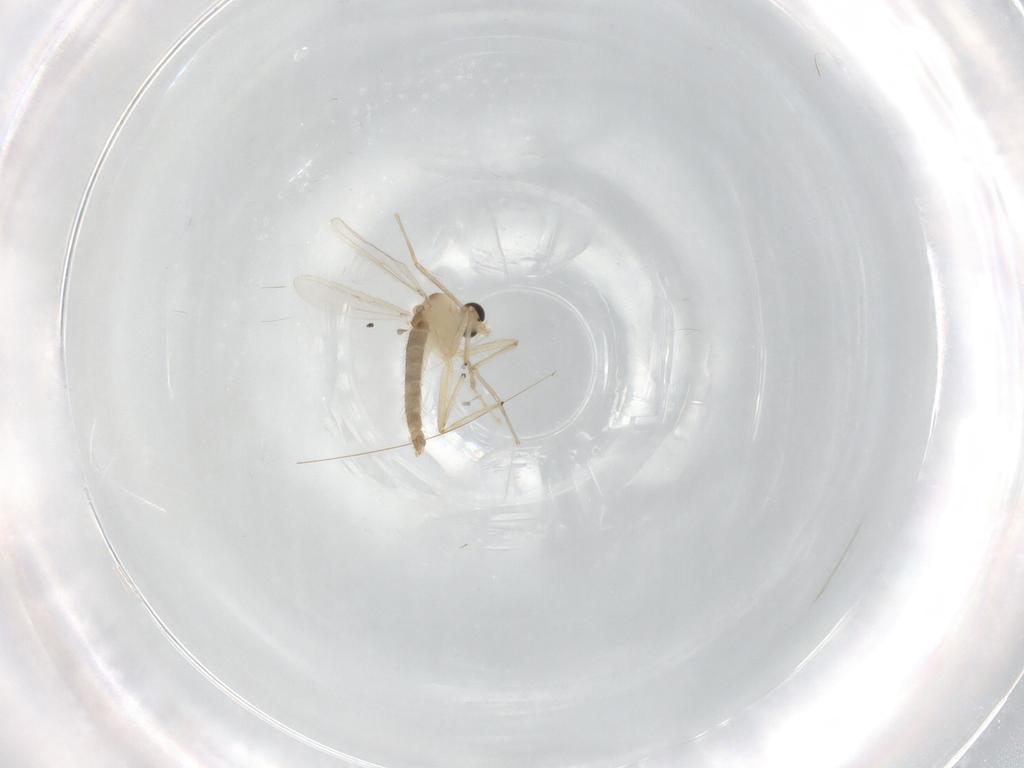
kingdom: Animalia
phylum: Arthropoda
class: Insecta
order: Diptera
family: Chironomidae
